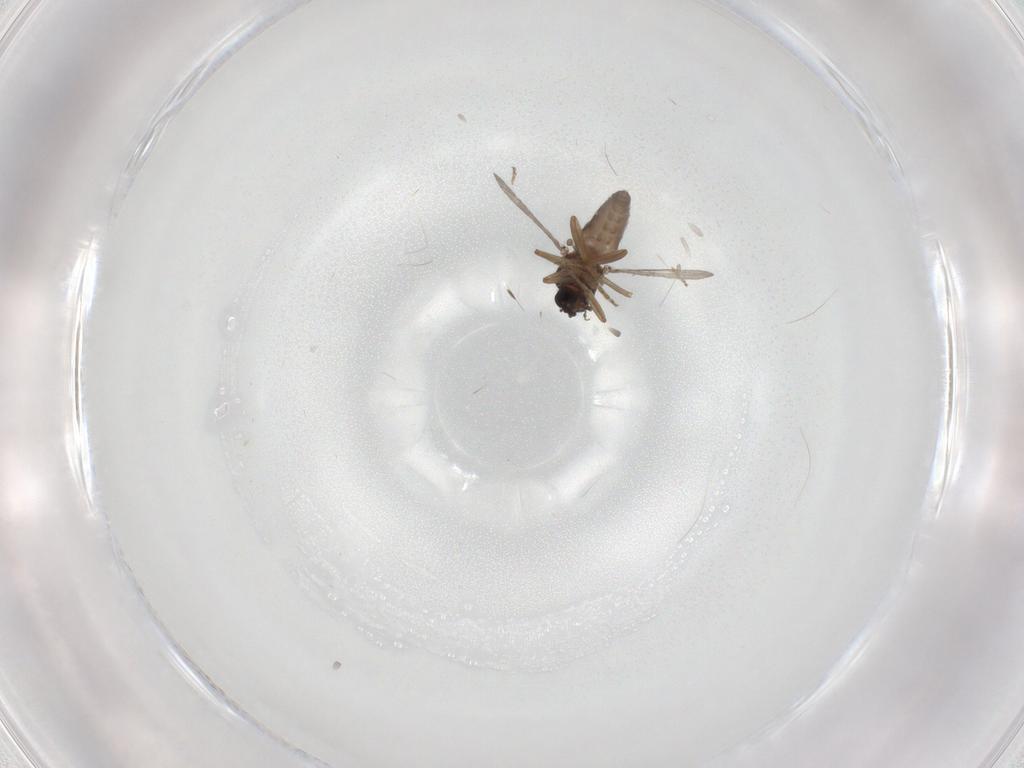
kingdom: Animalia
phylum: Arthropoda
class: Insecta
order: Diptera
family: Ceratopogonidae
